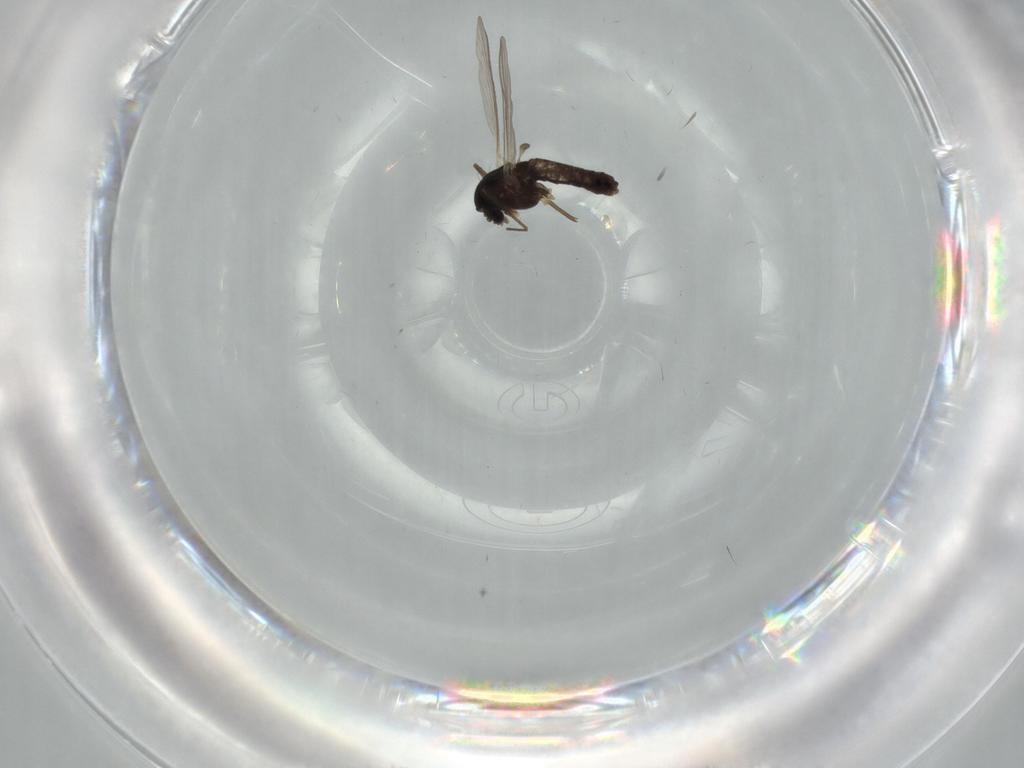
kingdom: Animalia
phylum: Arthropoda
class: Insecta
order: Diptera
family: Chironomidae
